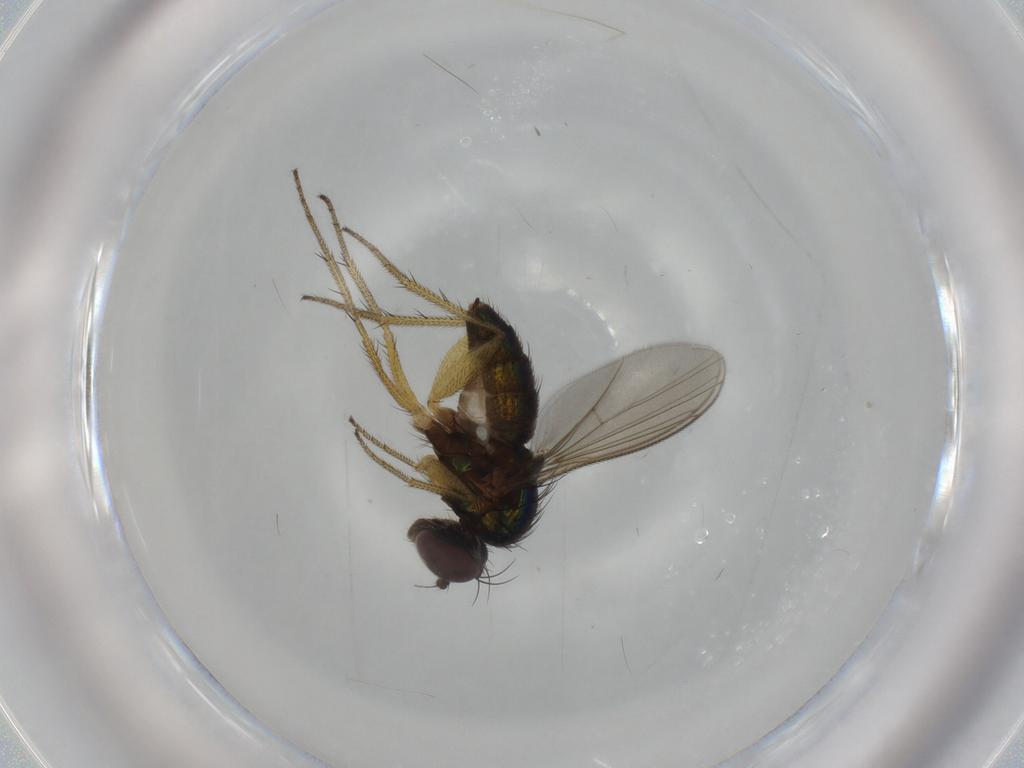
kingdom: Animalia
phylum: Arthropoda
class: Insecta
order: Diptera
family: Dolichopodidae
